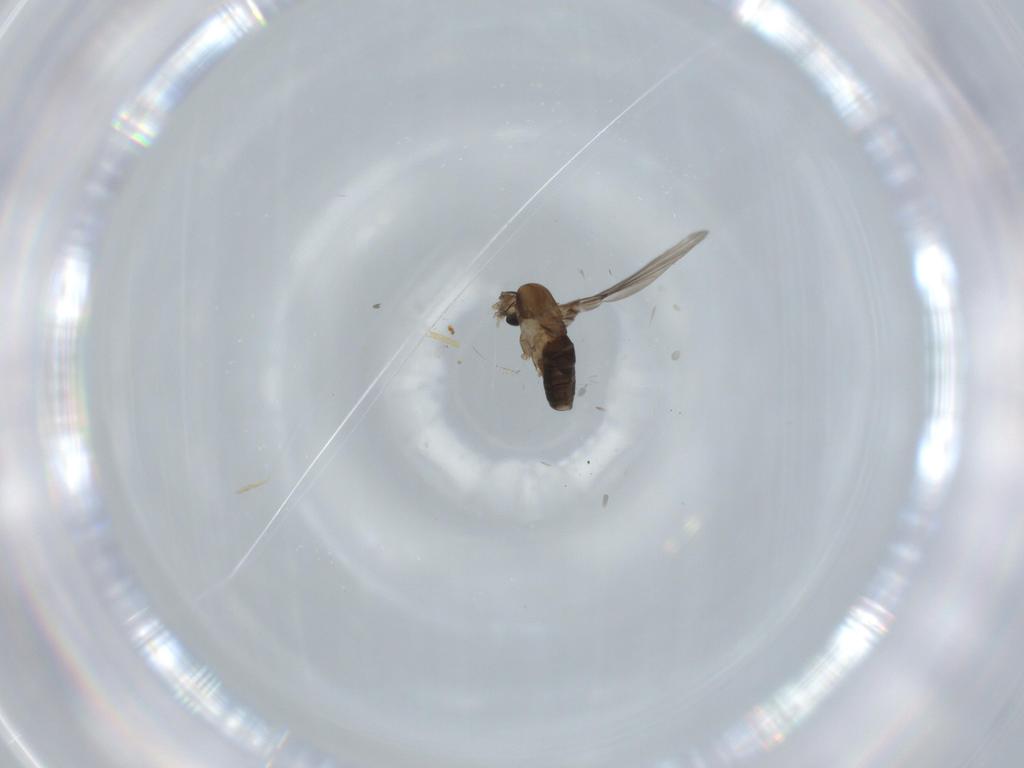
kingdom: Animalia
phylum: Arthropoda
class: Insecta
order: Diptera
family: Psychodidae
